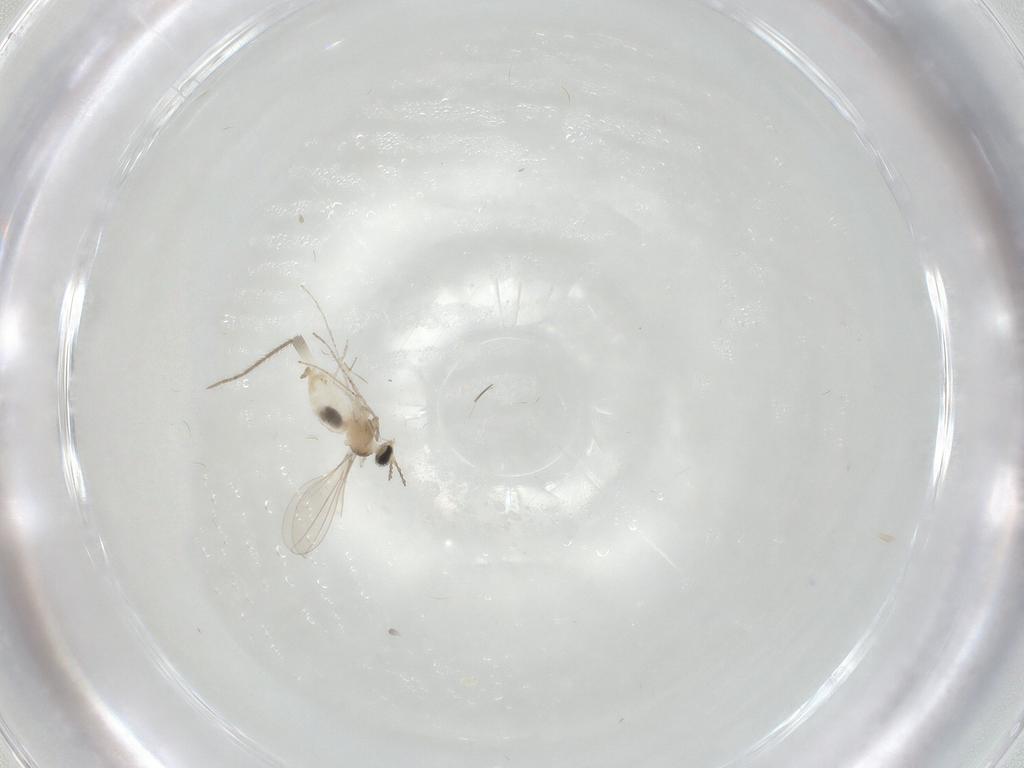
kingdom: Animalia
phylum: Arthropoda
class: Insecta
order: Diptera
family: Cecidomyiidae
